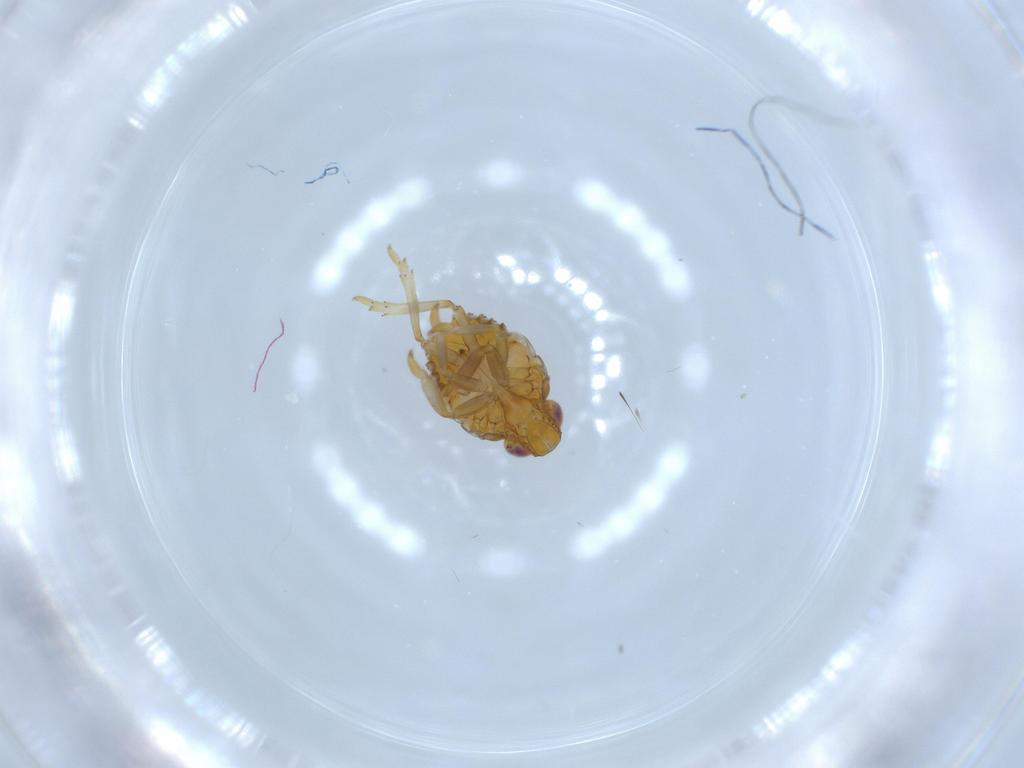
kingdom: Animalia
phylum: Arthropoda
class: Insecta
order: Hemiptera
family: Issidae
